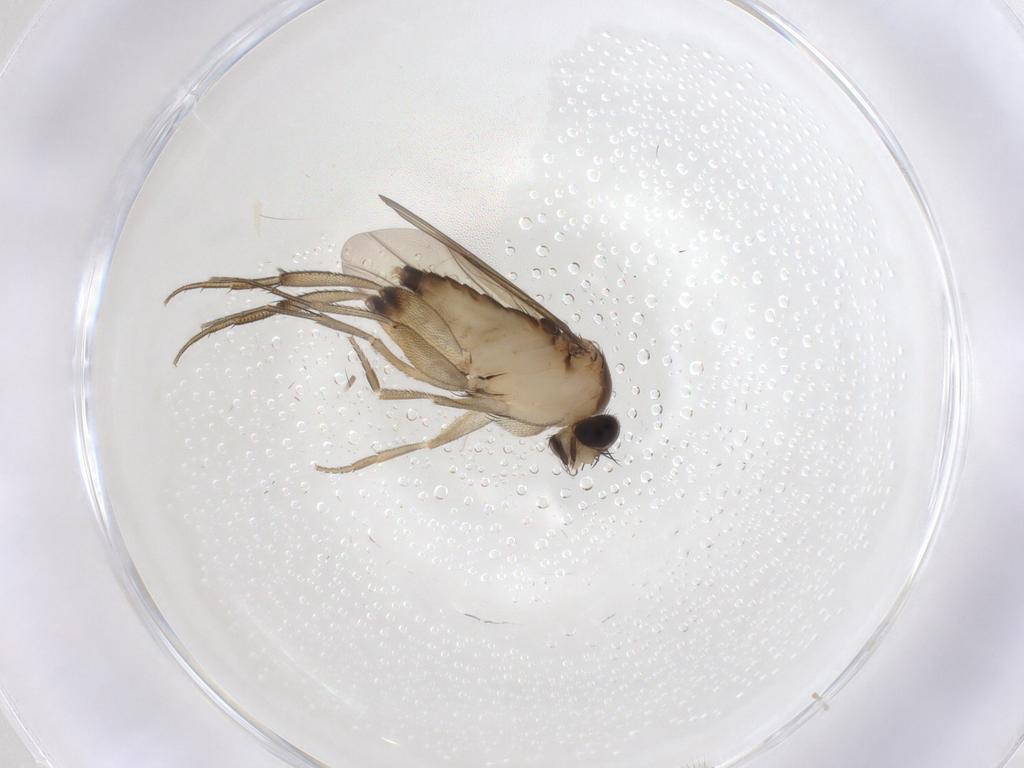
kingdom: Animalia
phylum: Arthropoda
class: Insecta
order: Diptera
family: Phoridae
